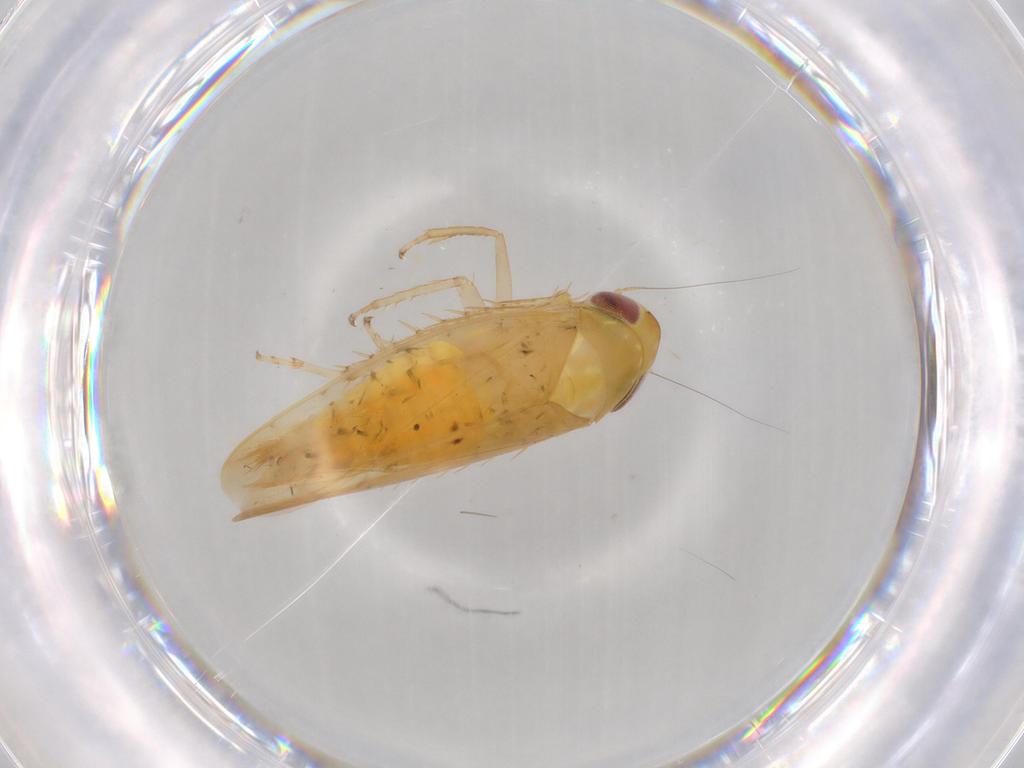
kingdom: Animalia
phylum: Arthropoda
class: Insecta
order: Hemiptera
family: Cicadellidae
